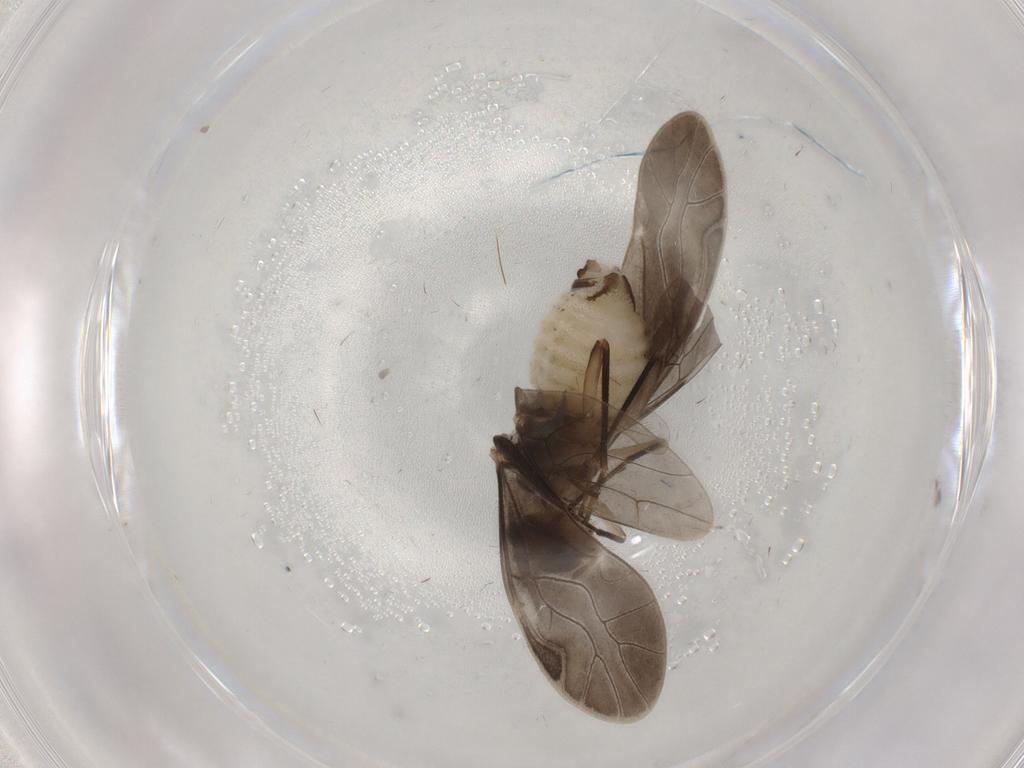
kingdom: Animalia
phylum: Arthropoda
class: Insecta
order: Psocodea
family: Caeciliusidae
